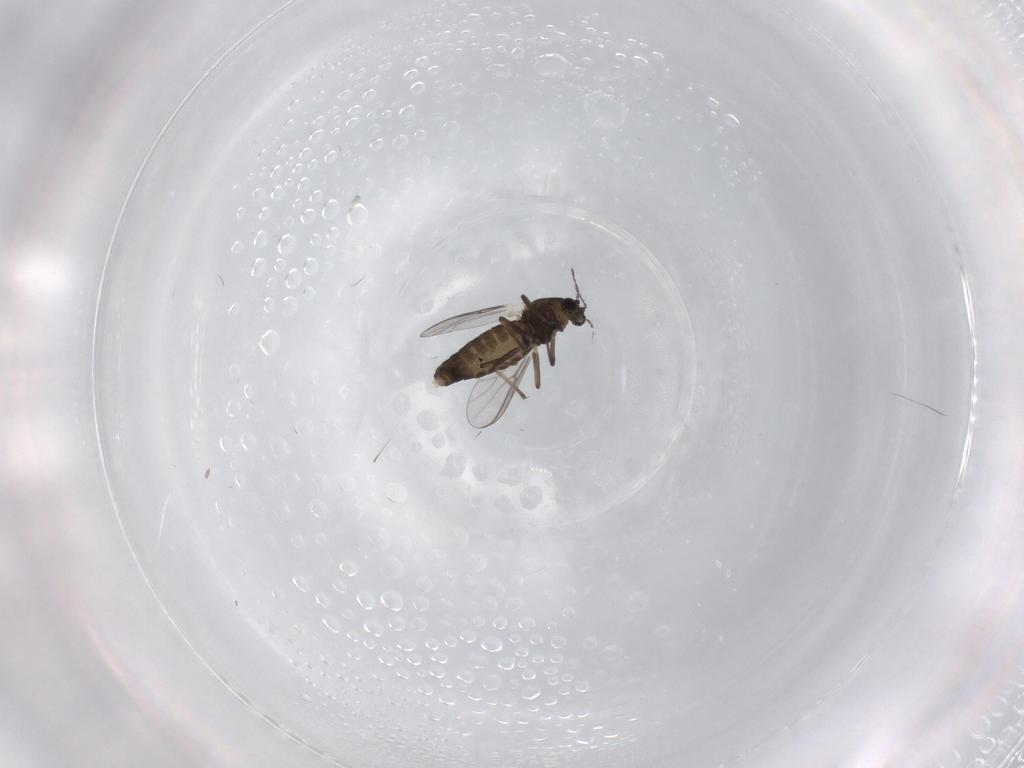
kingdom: Animalia
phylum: Arthropoda
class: Insecta
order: Diptera
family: Chironomidae
